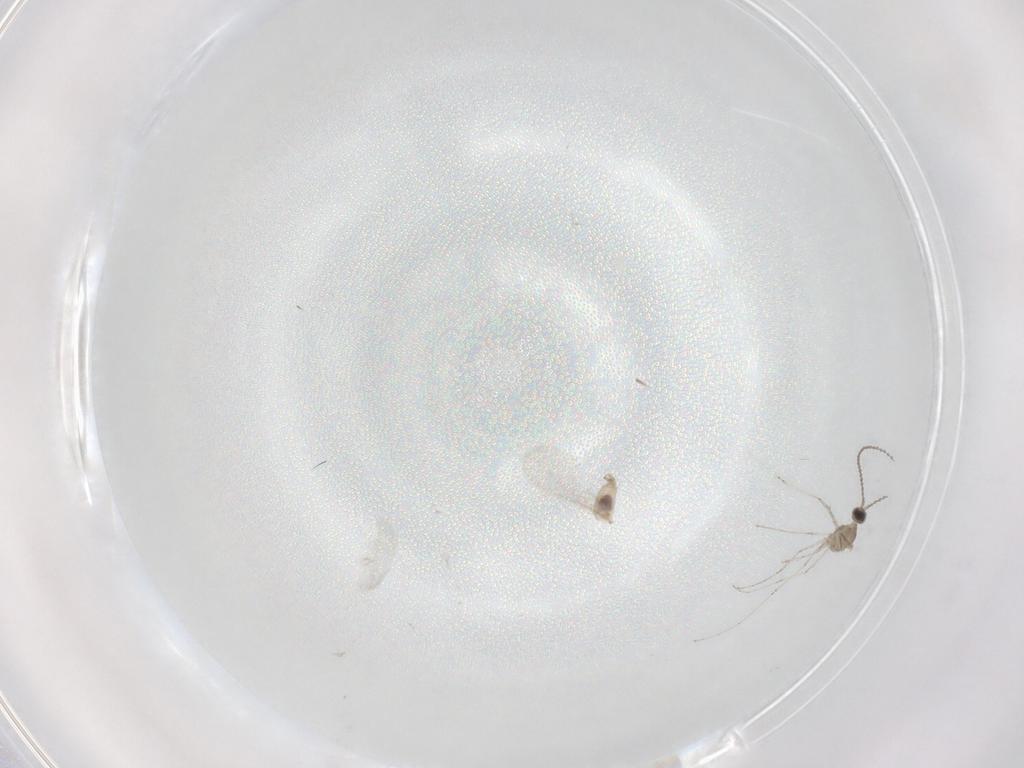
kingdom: Animalia
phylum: Arthropoda
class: Insecta
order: Diptera
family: Cecidomyiidae
